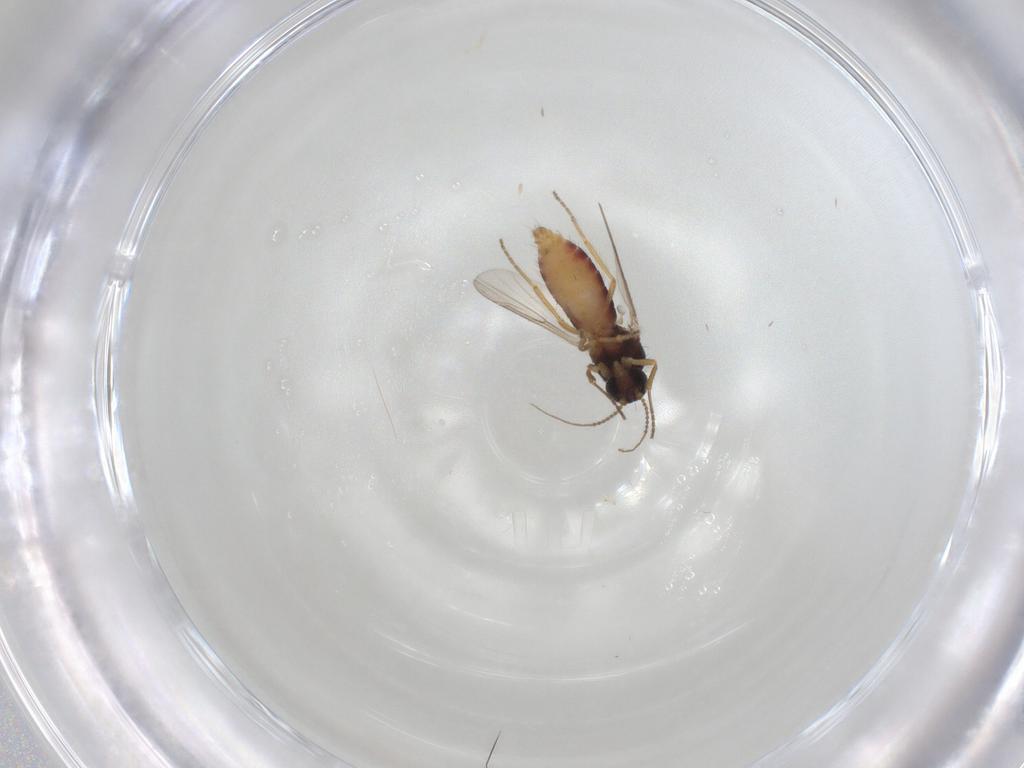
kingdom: Animalia
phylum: Arthropoda
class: Insecta
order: Diptera
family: Ceratopogonidae
